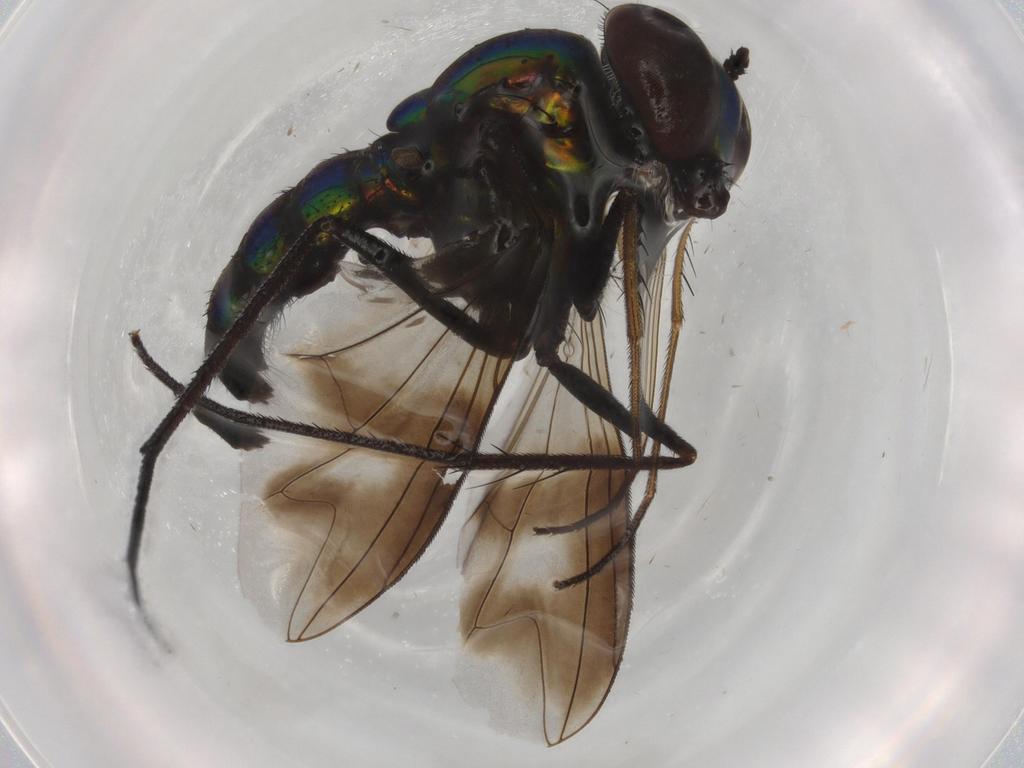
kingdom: Animalia
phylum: Arthropoda
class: Insecta
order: Diptera
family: Dolichopodidae
